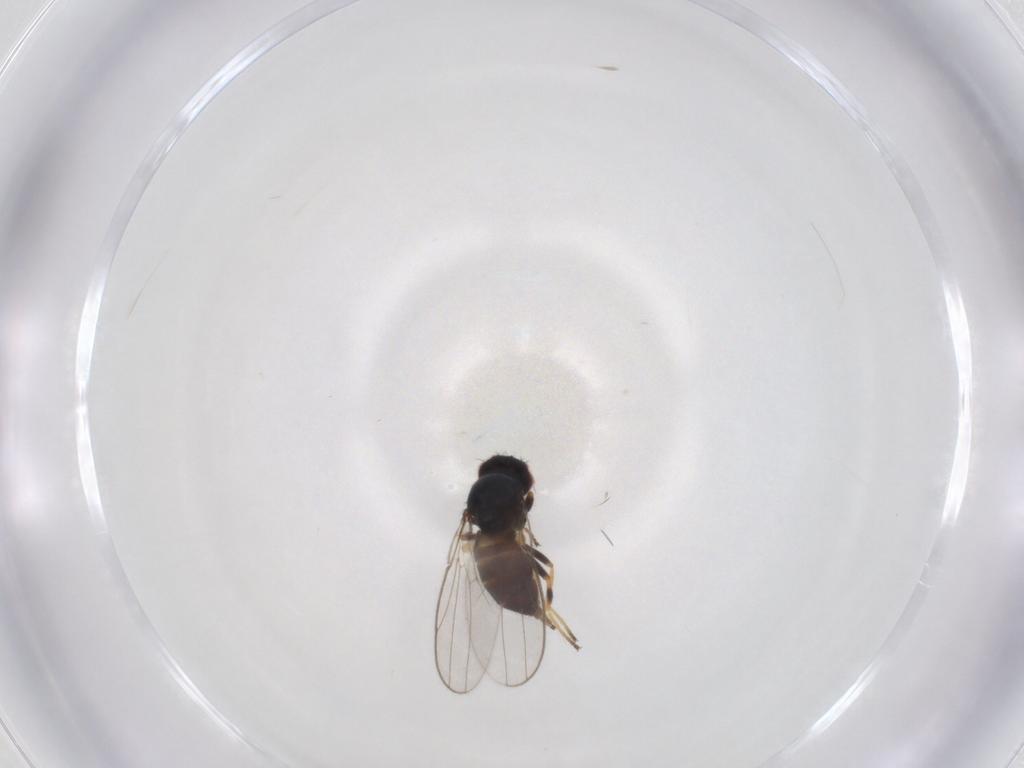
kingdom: Animalia
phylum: Arthropoda
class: Insecta
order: Diptera
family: Chloropidae
